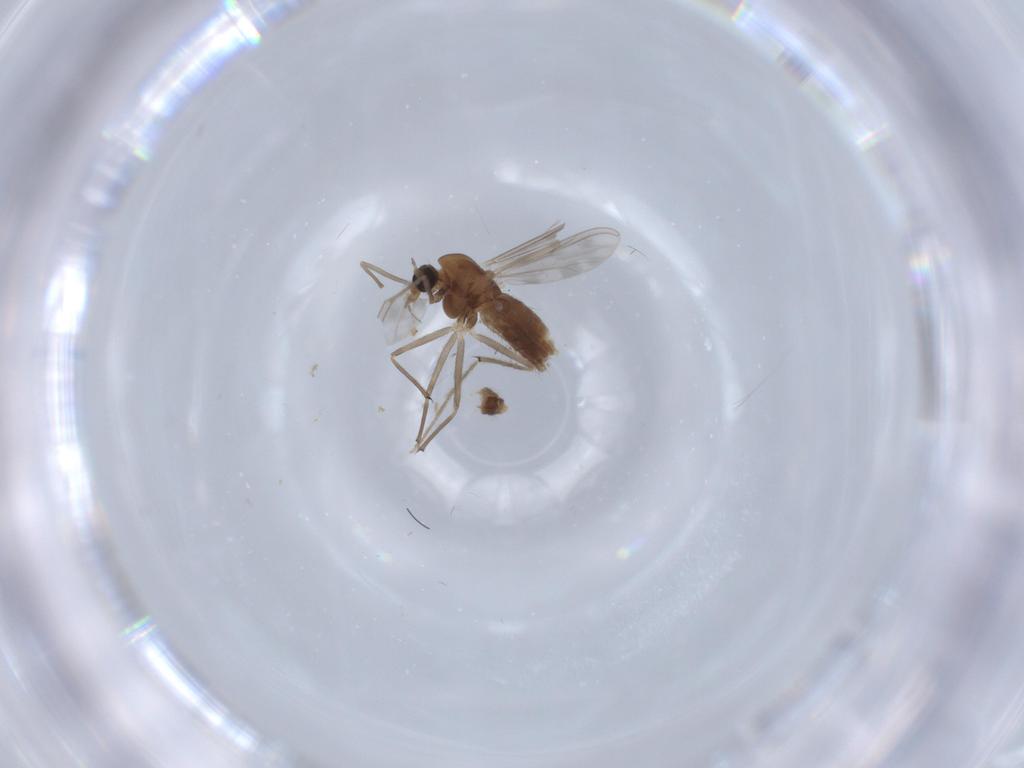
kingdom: Animalia
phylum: Arthropoda
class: Insecta
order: Diptera
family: Chironomidae
